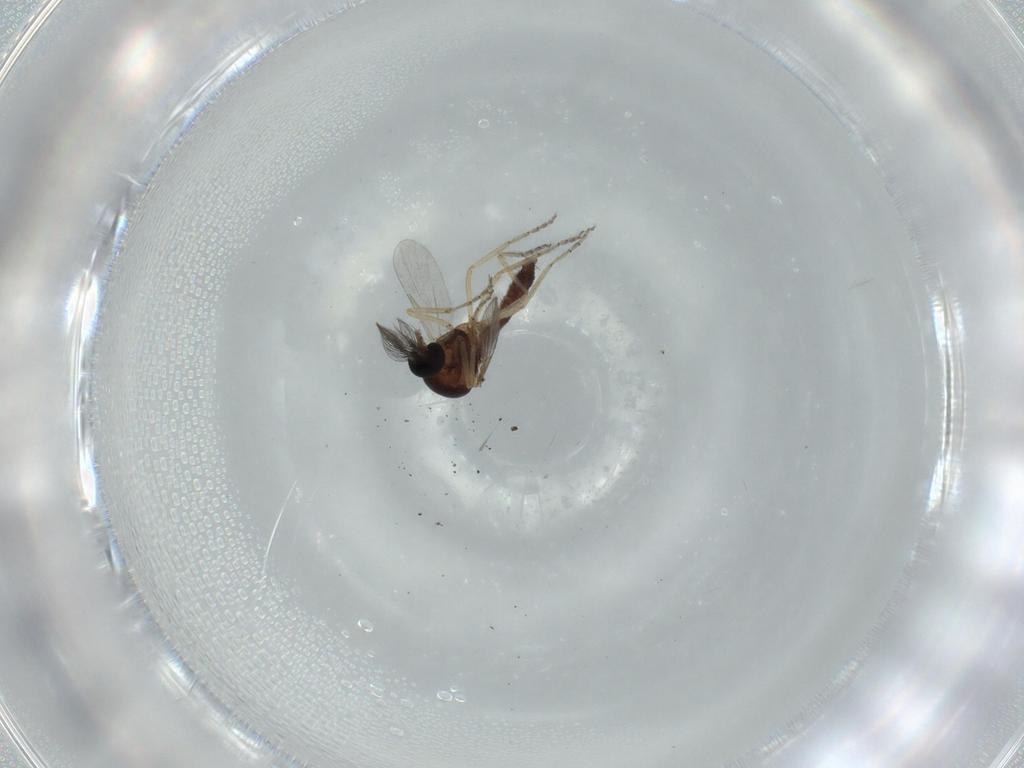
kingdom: Animalia
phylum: Arthropoda
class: Insecta
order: Diptera
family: Ceratopogonidae
